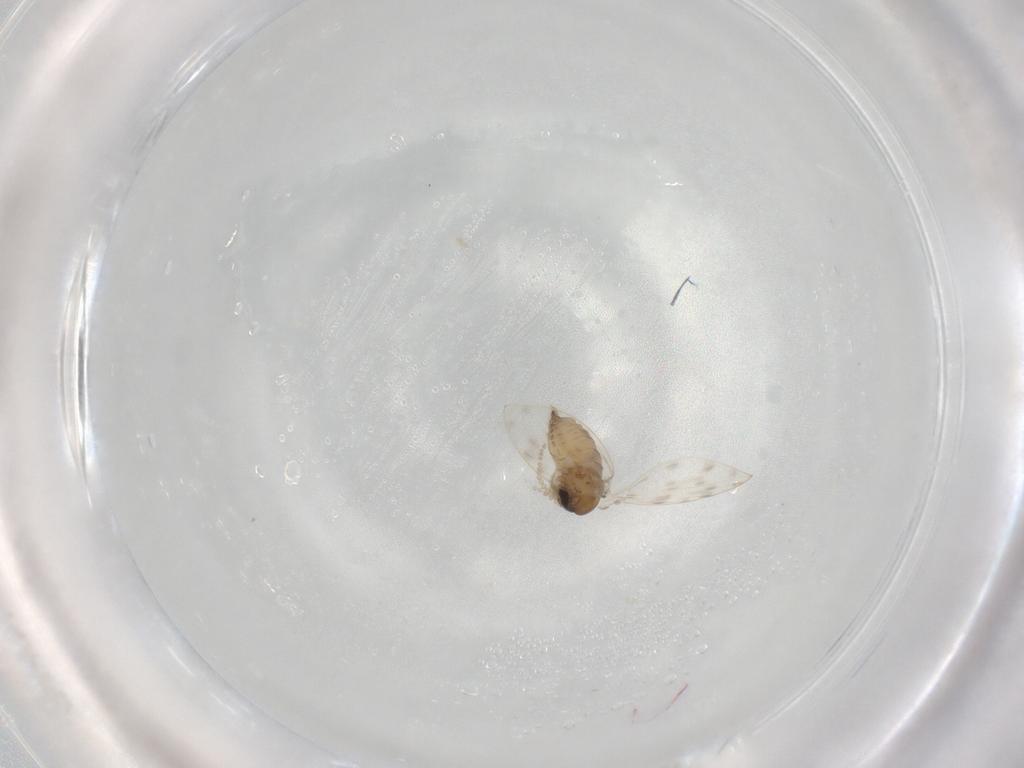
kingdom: Animalia
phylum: Arthropoda
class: Insecta
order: Diptera
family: Psychodidae
